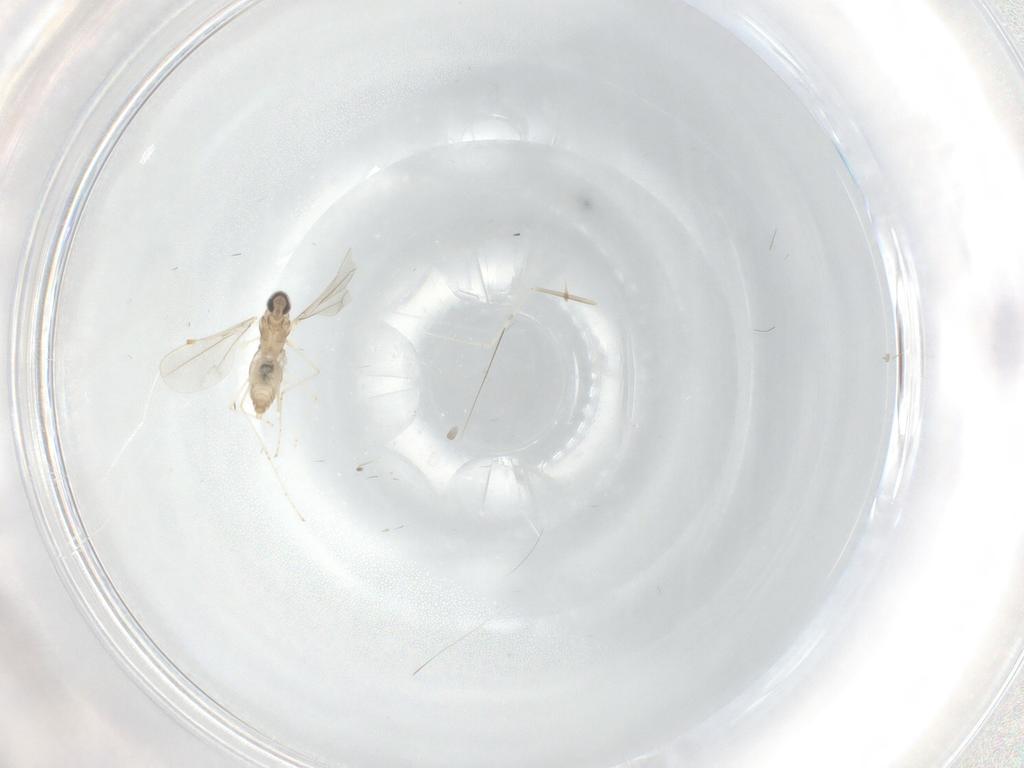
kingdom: Animalia
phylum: Arthropoda
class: Insecta
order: Diptera
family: Cecidomyiidae
